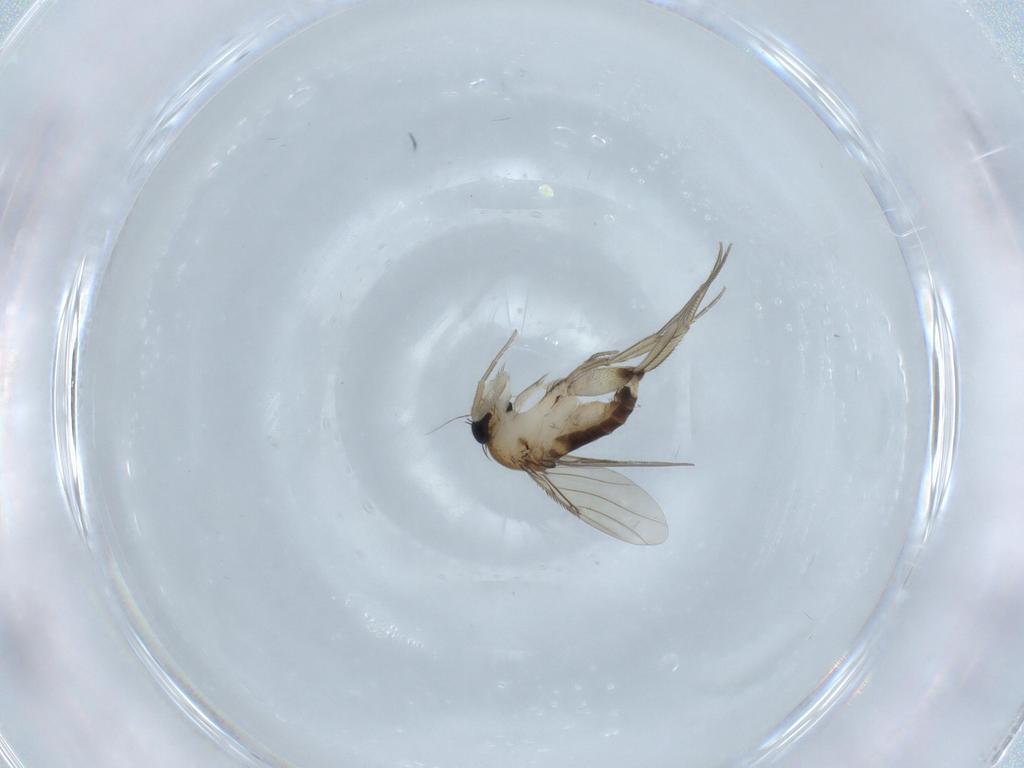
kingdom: Animalia
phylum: Arthropoda
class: Insecta
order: Diptera
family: Phoridae
